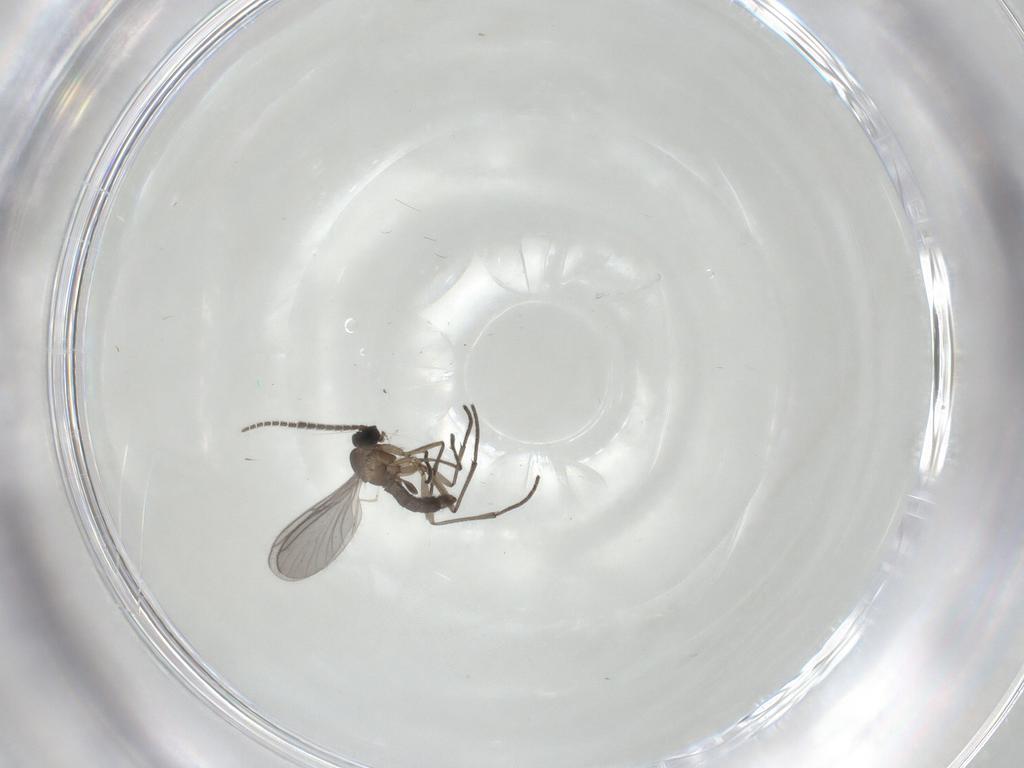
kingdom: Animalia
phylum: Arthropoda
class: Insecta
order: Diptera
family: Sciaridae
